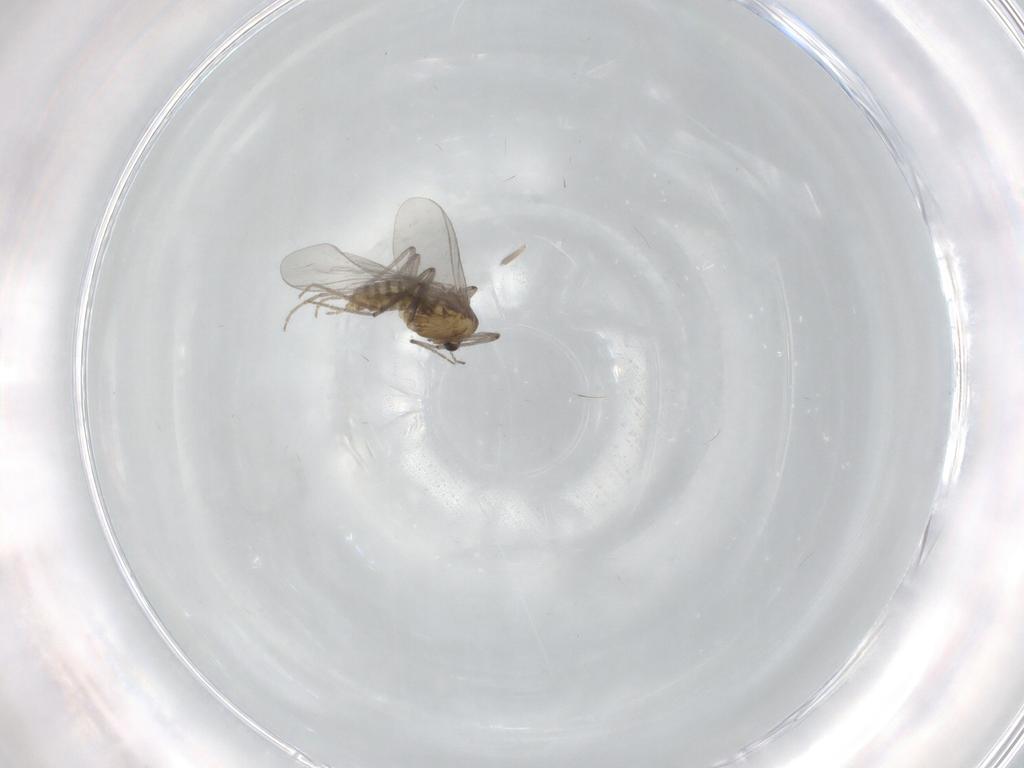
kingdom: Animalia
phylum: Arthropoda
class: Insecta
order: Diptera
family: Chironomidae
